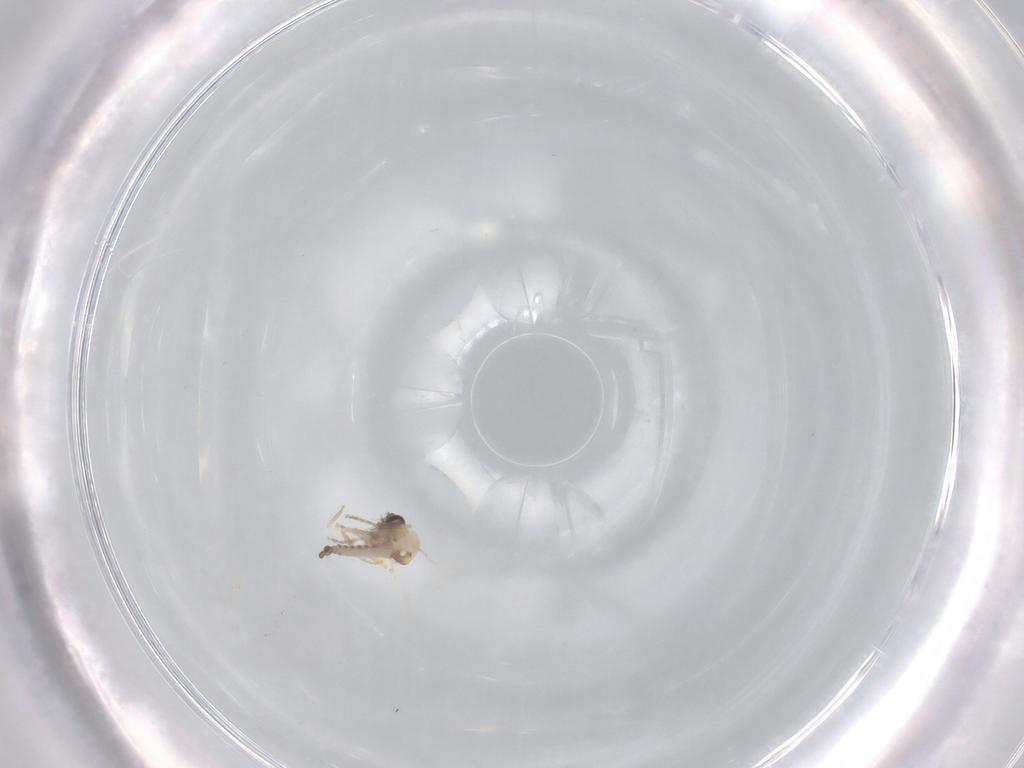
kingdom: Animalia
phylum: Arthropoda
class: Insecta
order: Diptera
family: Ceratopogonidae
